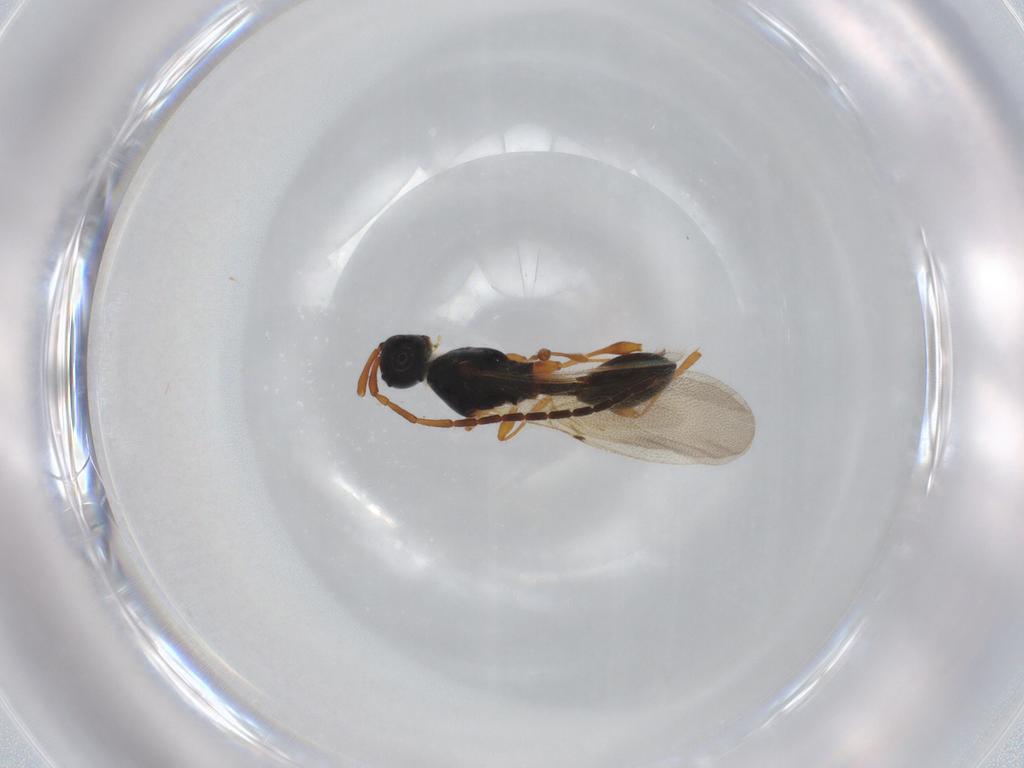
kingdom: Animalia
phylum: Arthropoda
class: Insecta
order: Hymenoptera
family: Diapriidae
